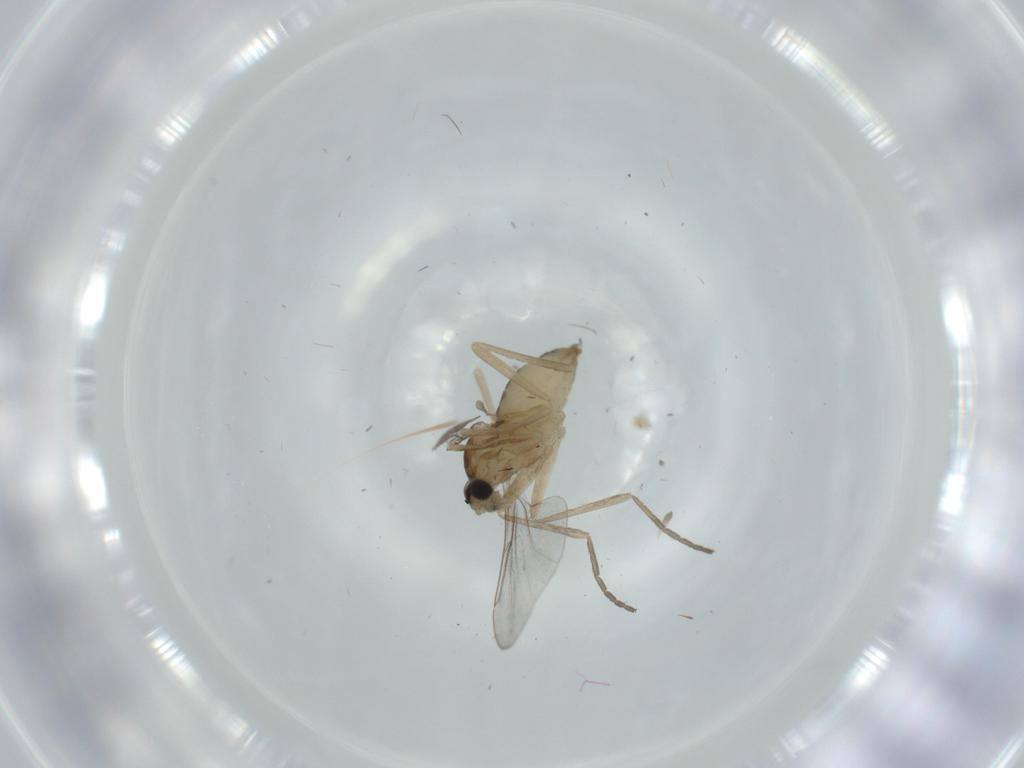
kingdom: Animalia
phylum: Arthropoda
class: Insecta
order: Diptera
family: Cecidomyiidae
